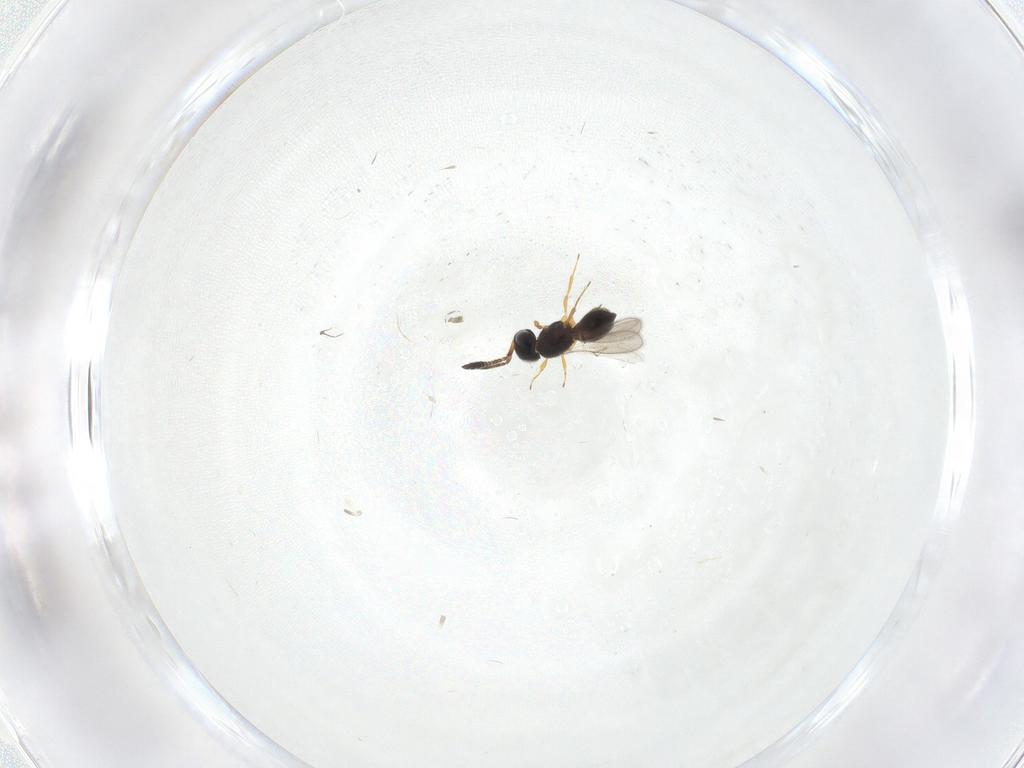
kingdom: Animalia
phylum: Arthropoda
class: Insecta
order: Hymenoptera
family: Scelionidae
